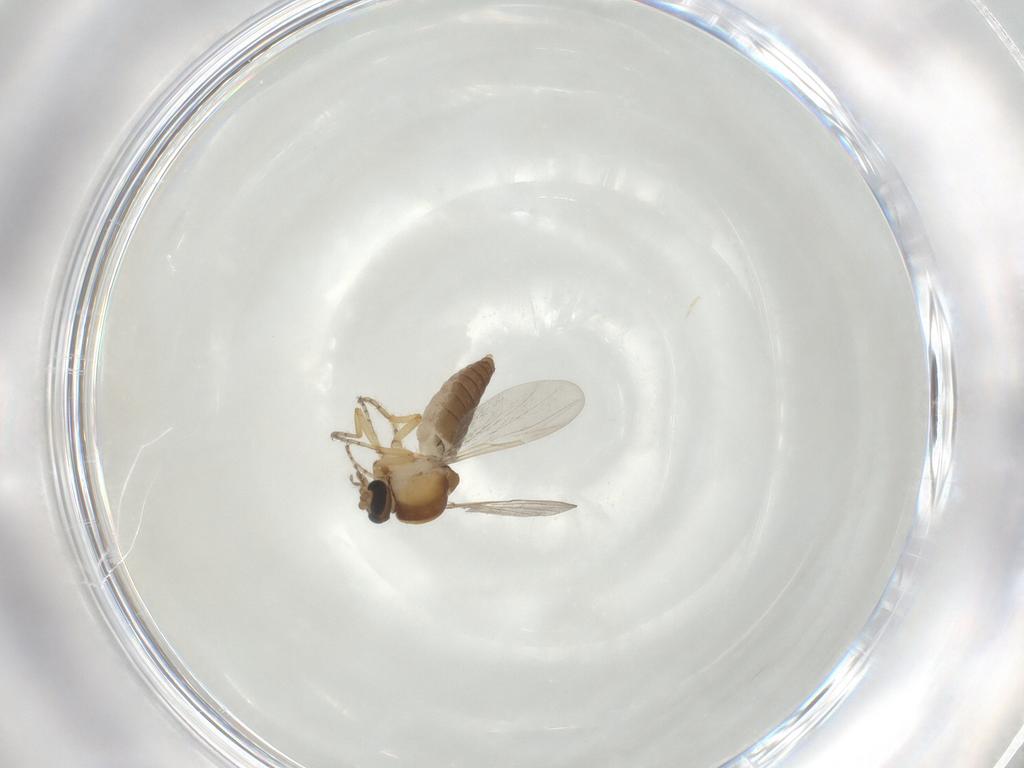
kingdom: Animalia
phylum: Arthropoda
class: Insecta
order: Diptera
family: Ceratopogonidae
